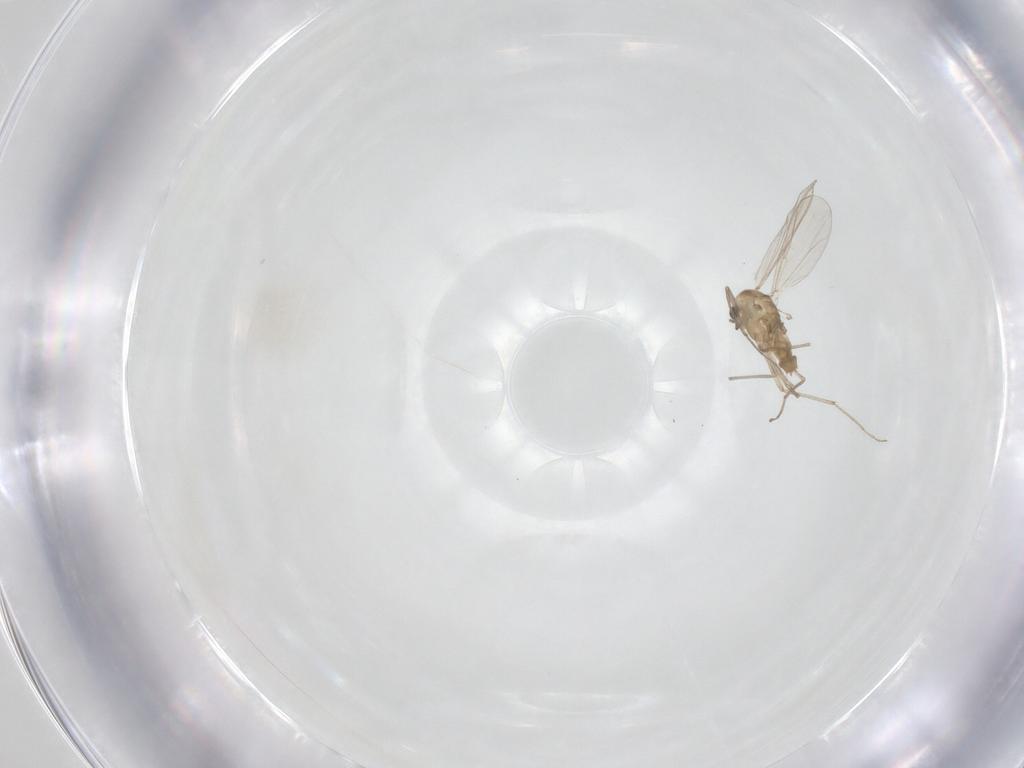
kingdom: Animalia
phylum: Arthropoda
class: Insecta
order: Diptera
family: Chironomidae
